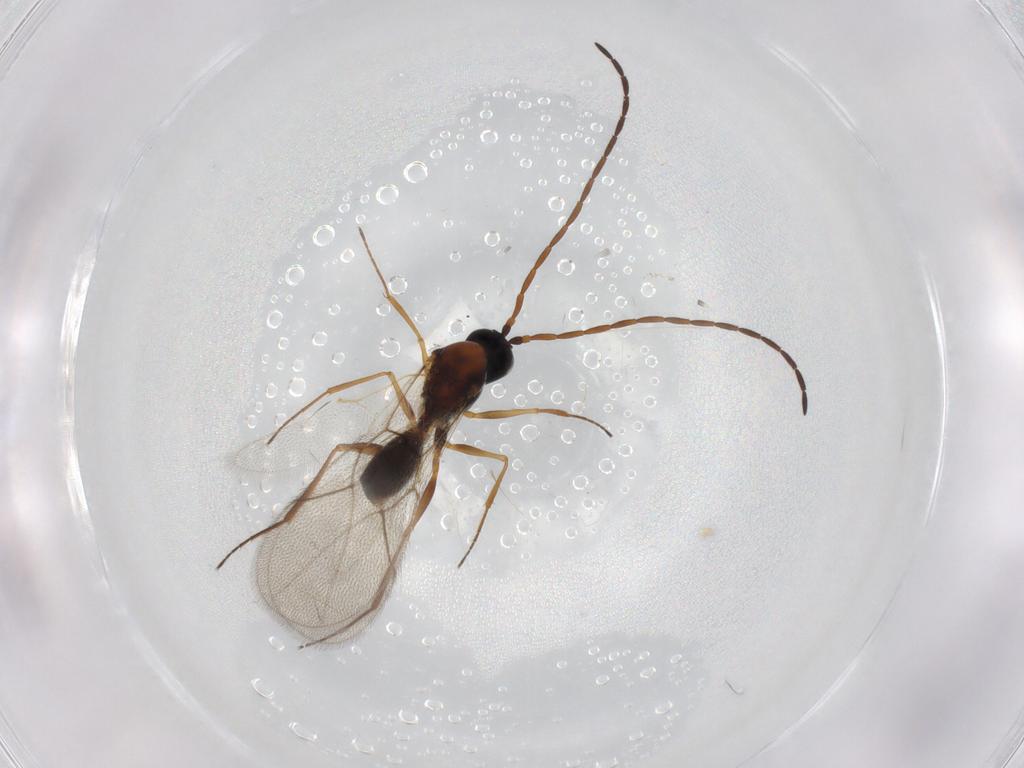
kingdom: Animalia
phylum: Arthropoda
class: Insecta
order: Hymenoptera
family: Figitidae
